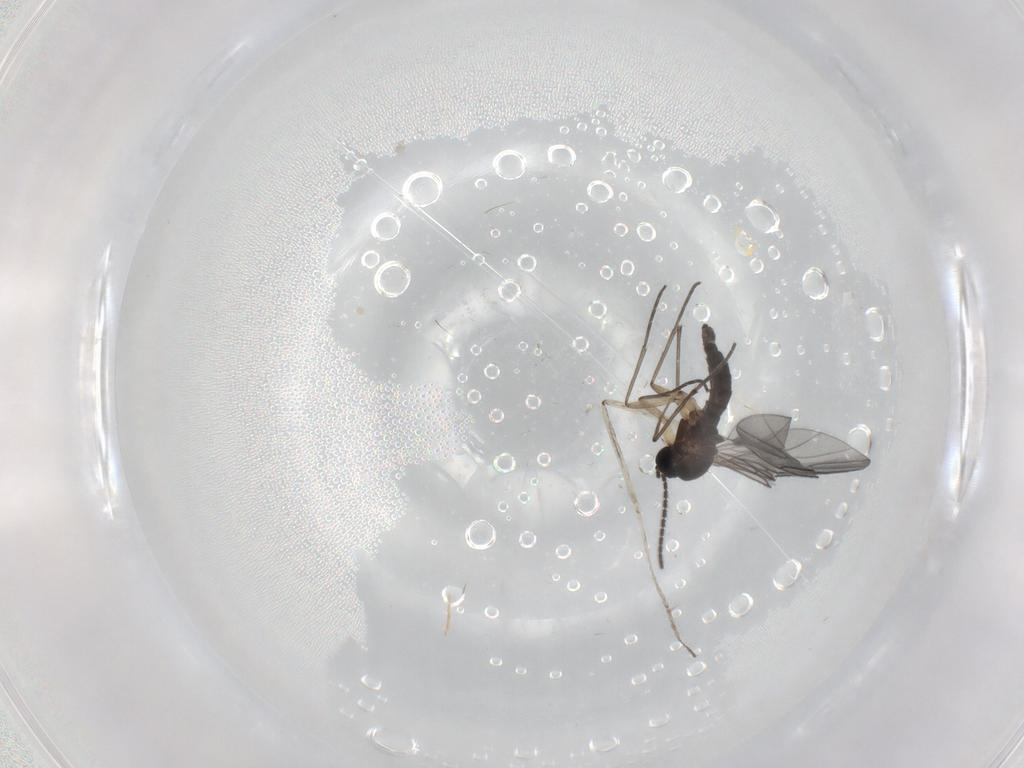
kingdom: Animalia
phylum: Arthropoda
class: Insecta
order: Diptera
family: Sciaridae
